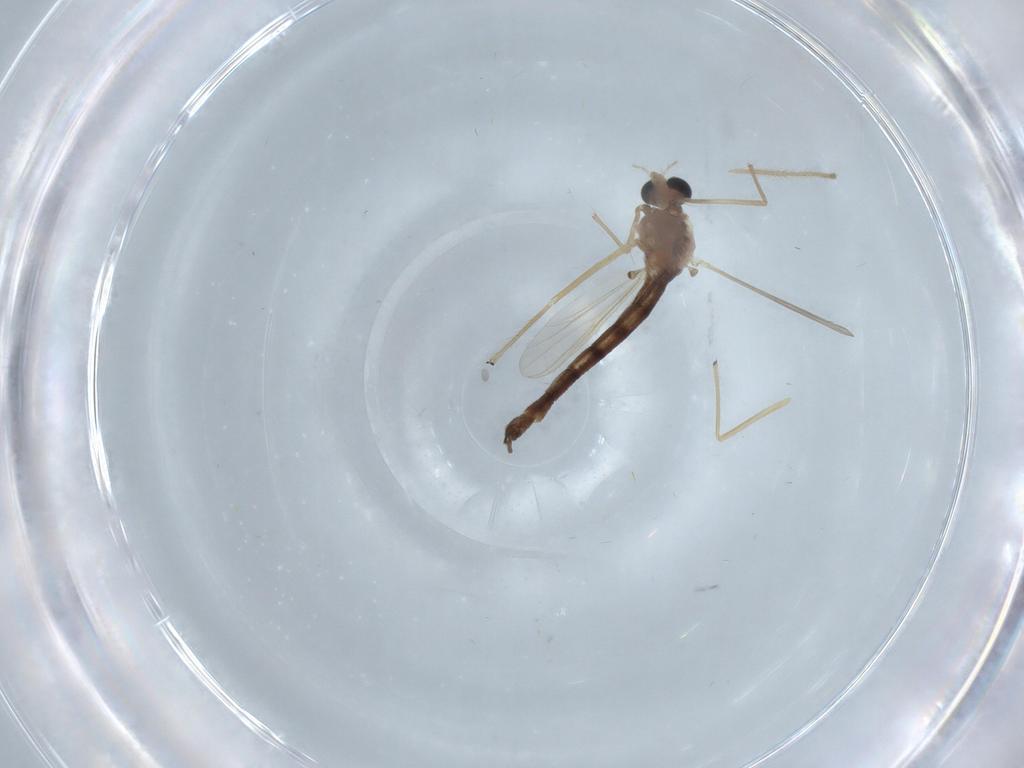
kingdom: Animalia
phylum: Arthropoda
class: Insecta
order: Diptera
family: Chironomidae
